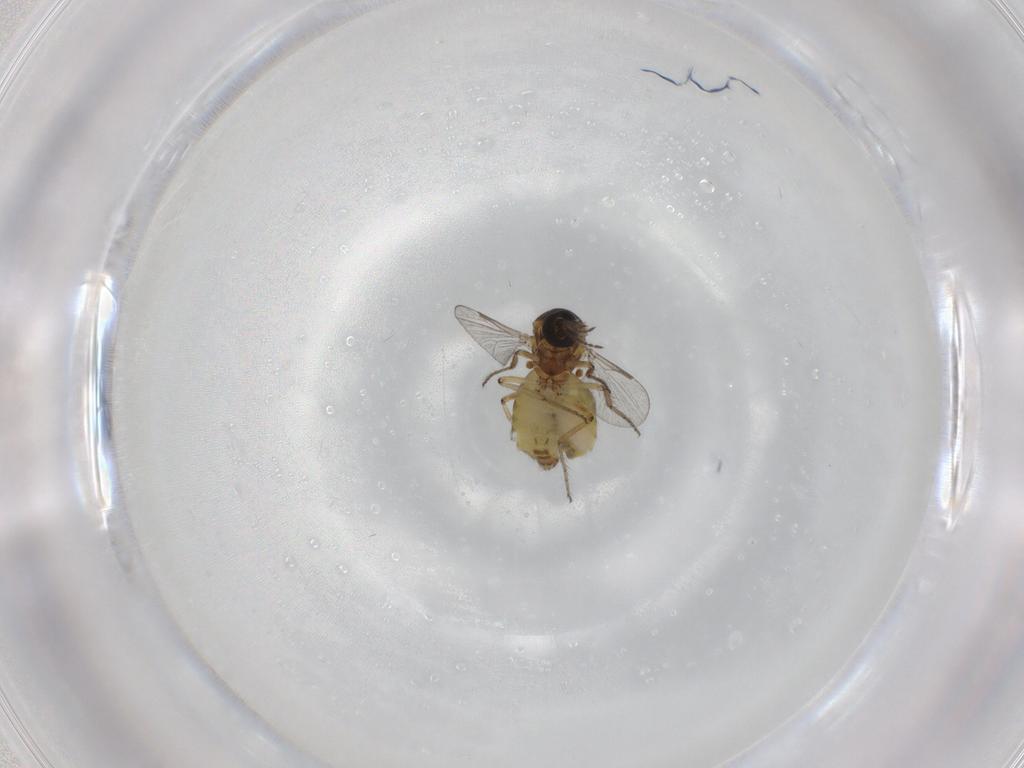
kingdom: Animalia
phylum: Arthropoda
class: Insecta
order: Diptera
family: Ceratopogonidae
